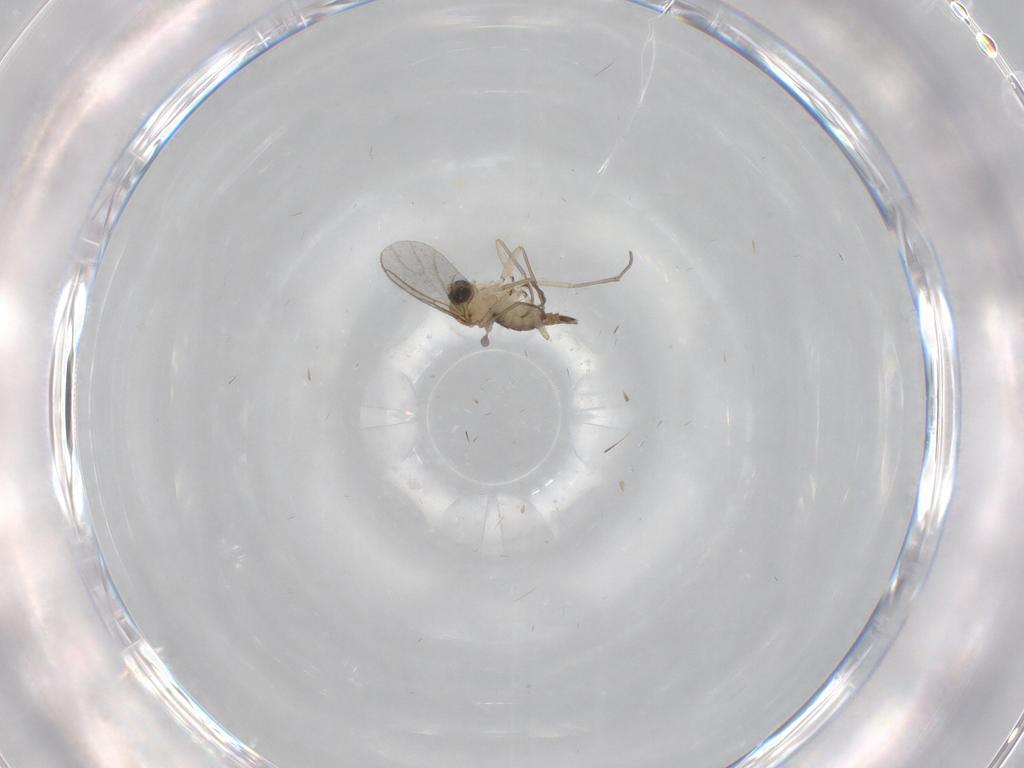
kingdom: Animalia
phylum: Arthropoda
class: Insecta
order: Diptera
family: Sciaridae
